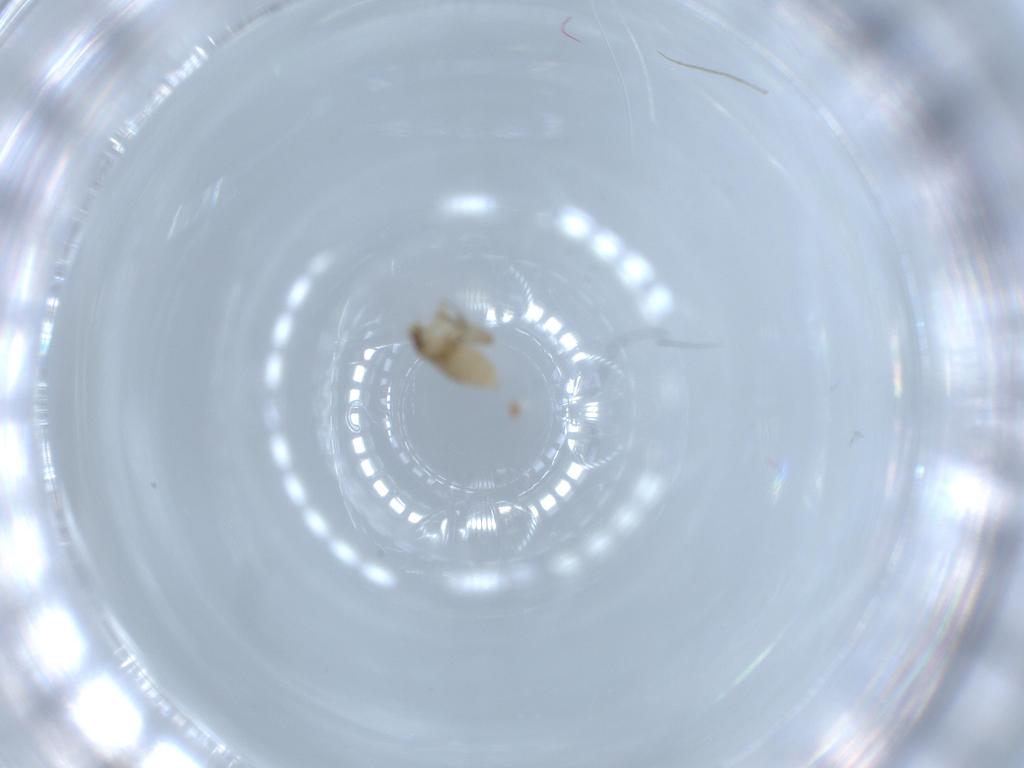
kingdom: Animalia
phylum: Arthropoda
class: Insecta
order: Diptera
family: Phoridae
